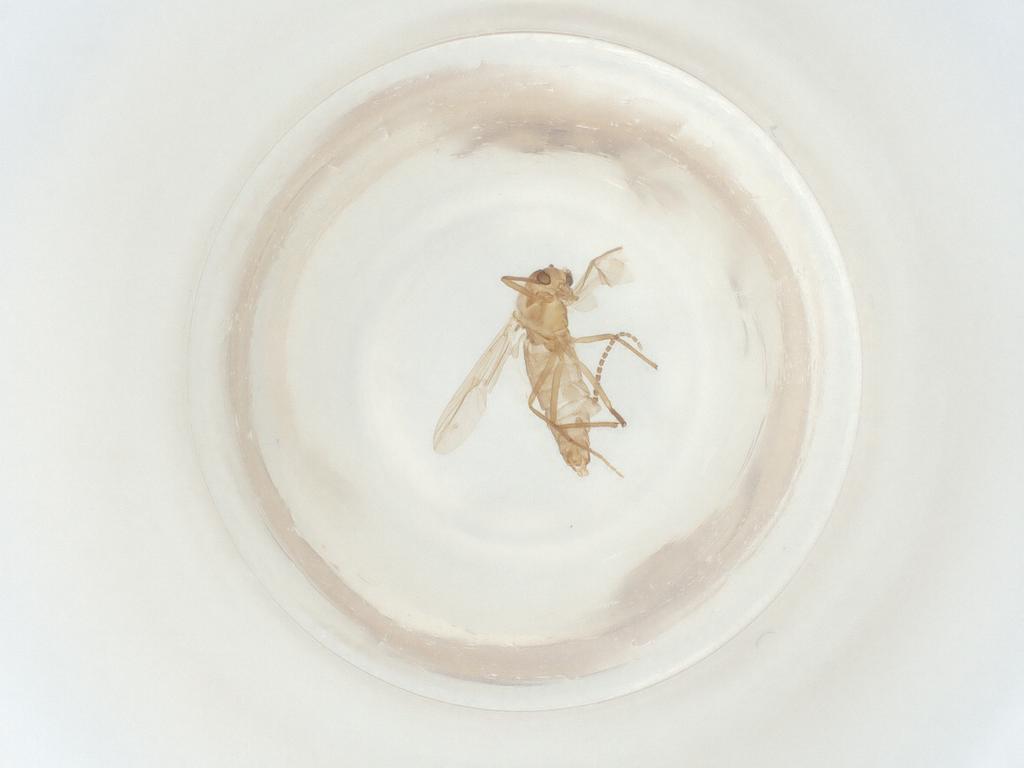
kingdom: Animalia
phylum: Arthropoda
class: Insecta
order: Diptera
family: Chironomidae
